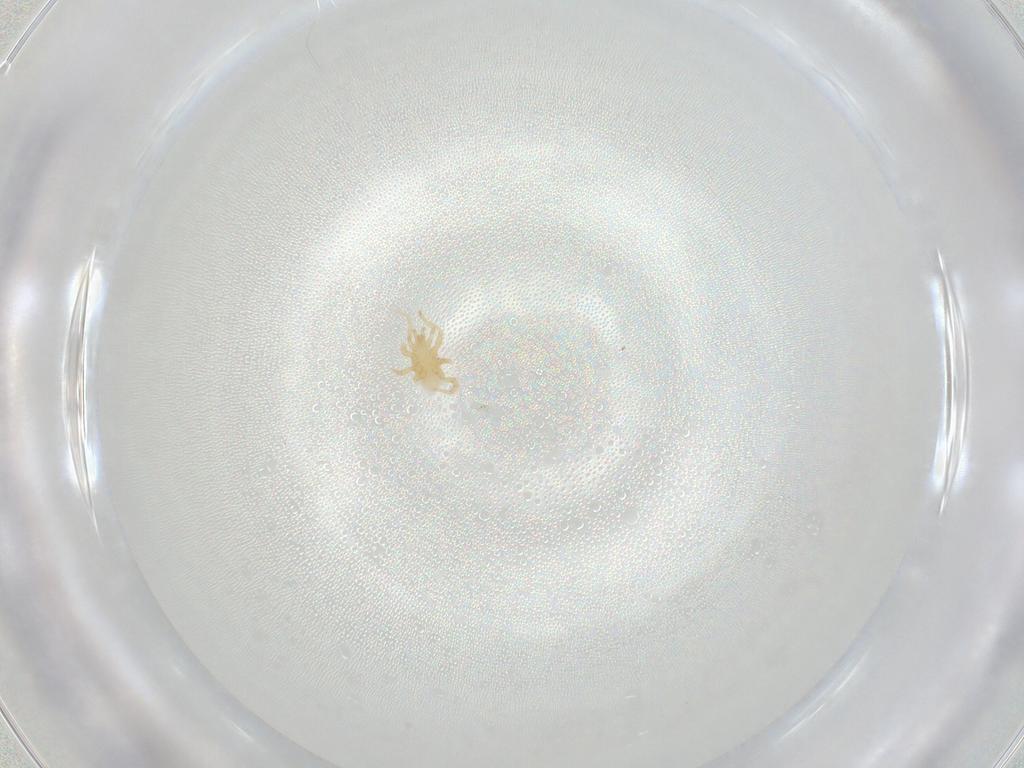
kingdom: Animalia
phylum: Arthropoda
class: Arachnida
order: Mesostigmata
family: Parasitidae
